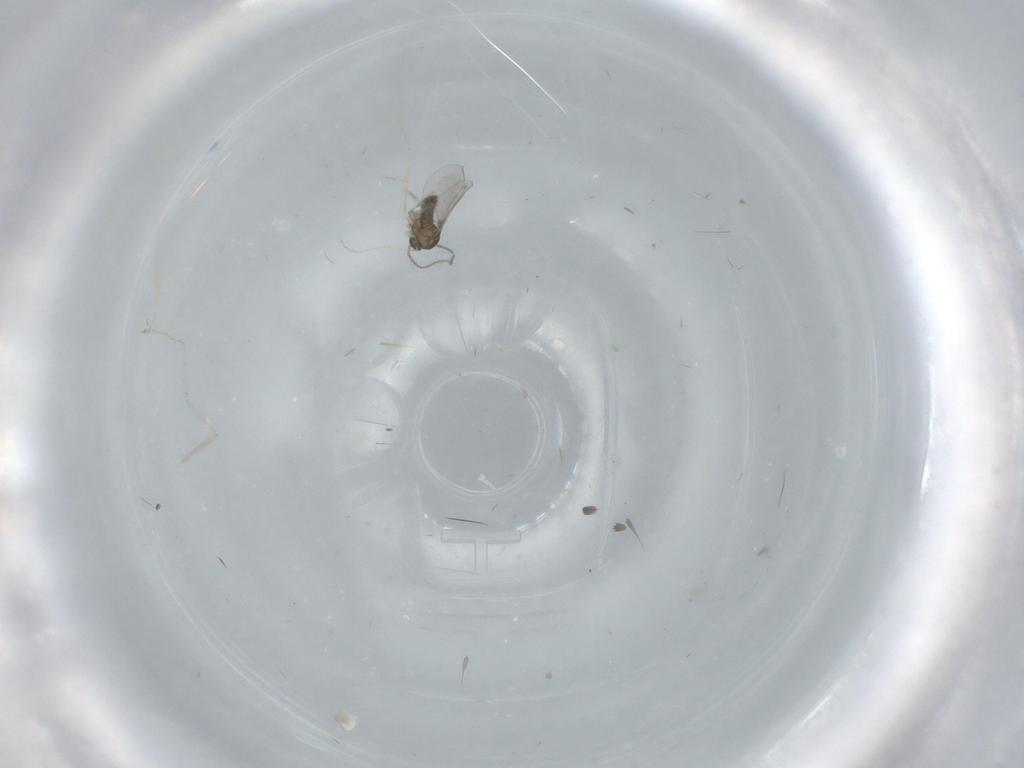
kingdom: Animalia
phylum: Arthropoda
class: Insecta
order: Diptera
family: Cecidomyiidae
